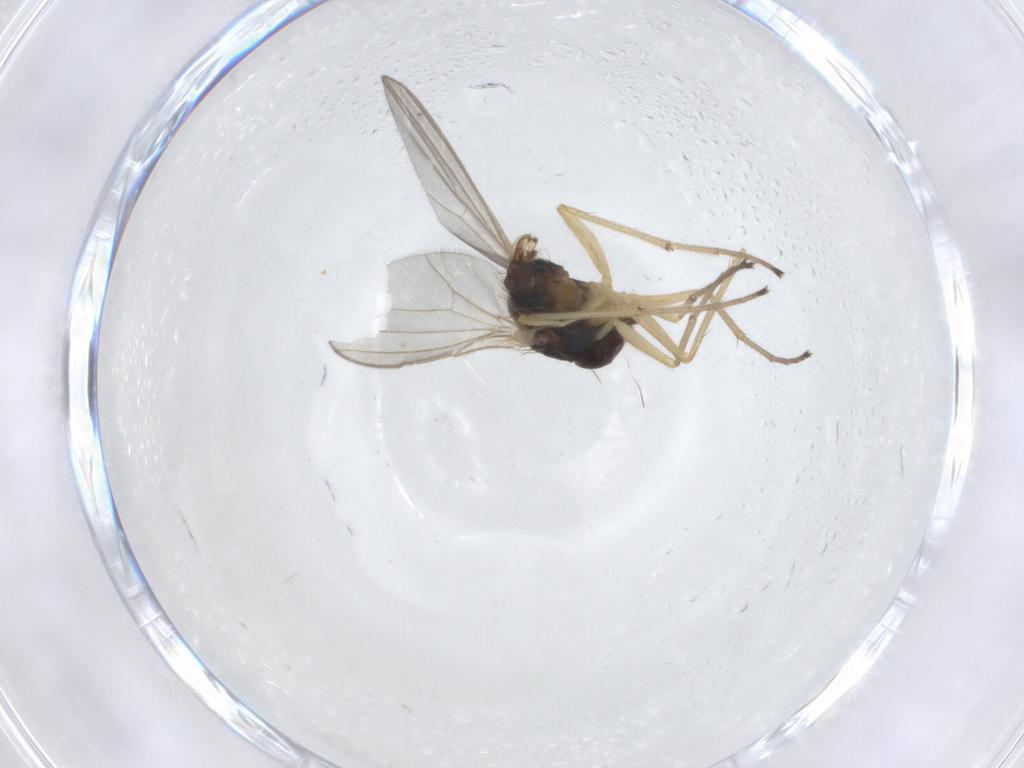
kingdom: Animalia
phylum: Arthropoda
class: Insecta
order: Diptera
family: Dolichopodidae
